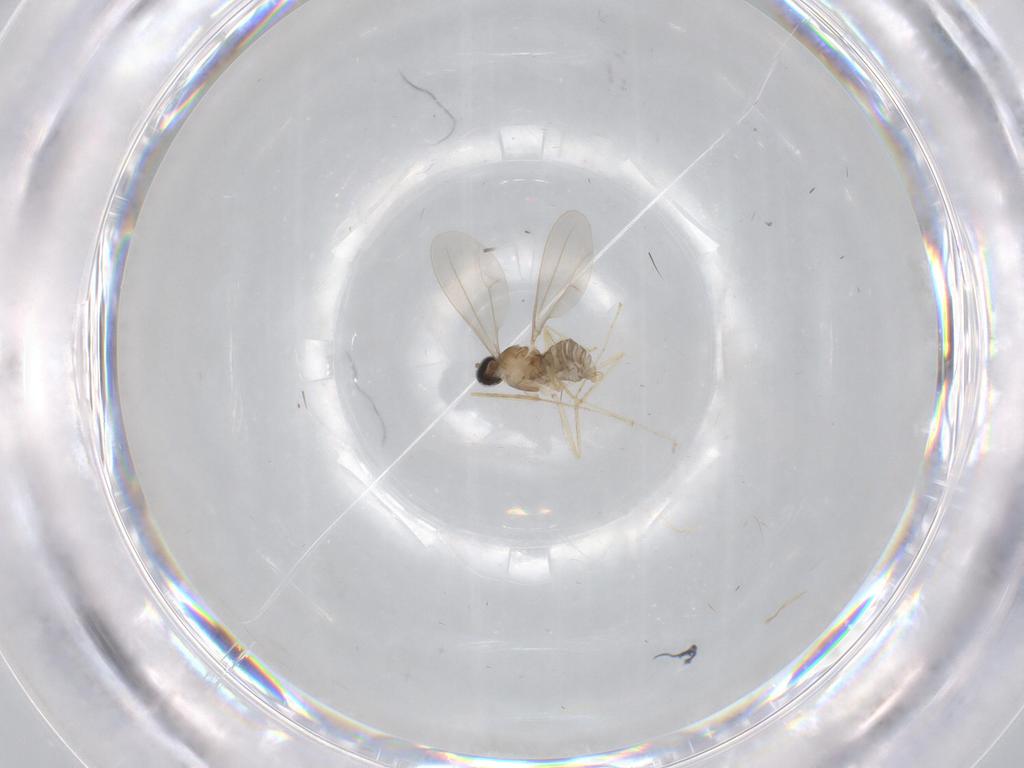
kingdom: Animalia
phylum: Arthropoda
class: Insecta
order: Diptera
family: Cecidomyiidae
